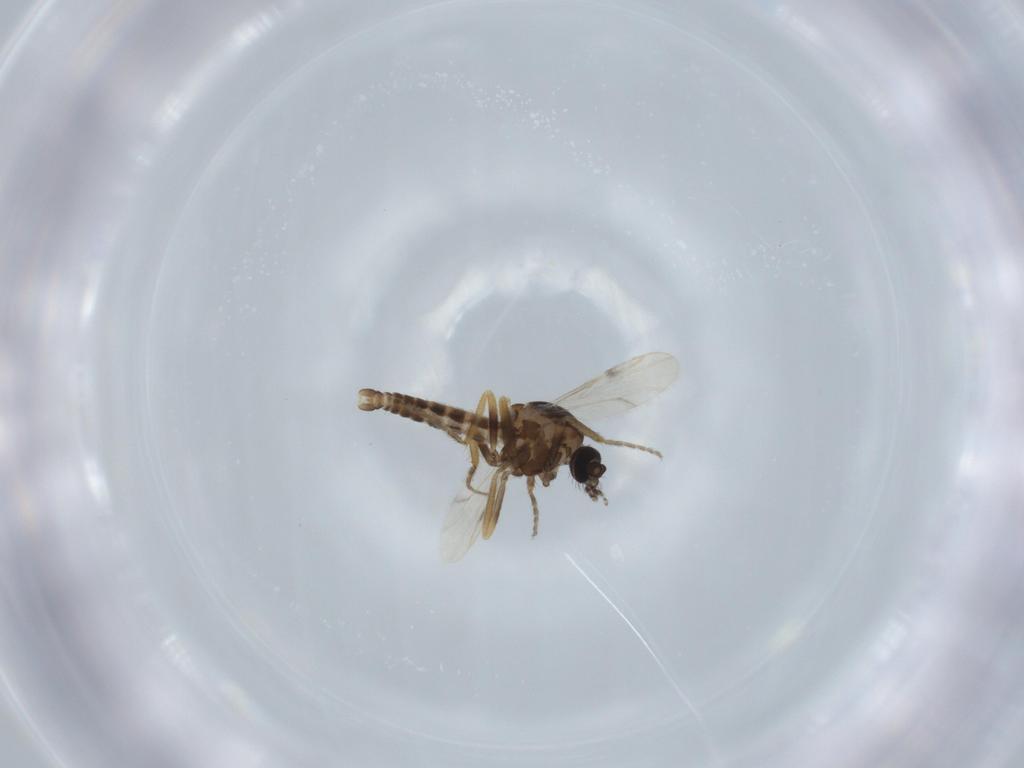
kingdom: Animalia
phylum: Arthropoda
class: Insecta
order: Diptera
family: Ceratopogonidae
